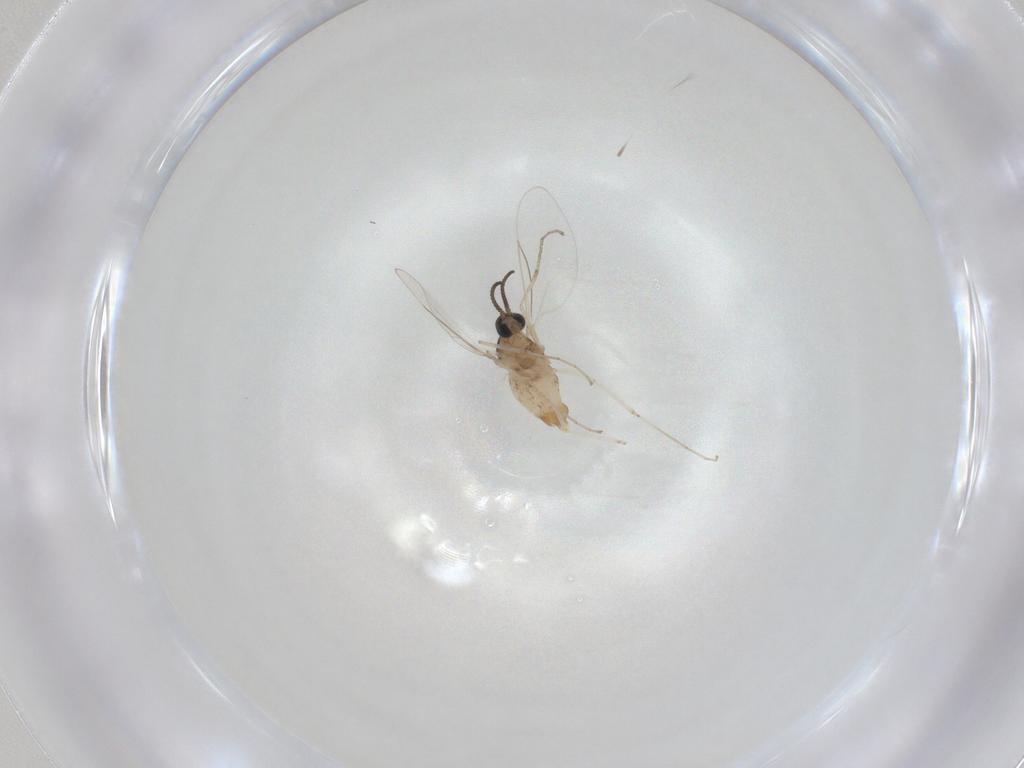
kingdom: Animalia
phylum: Arthropoda
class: Insecta
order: Diptera
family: Cecidomyiidae
